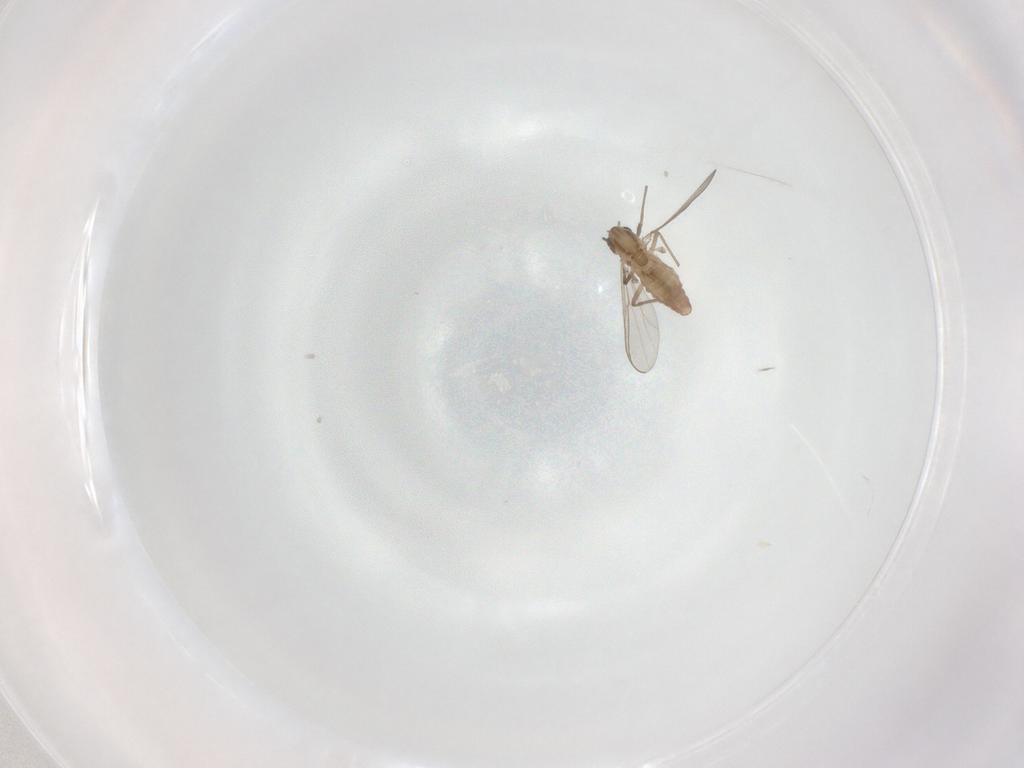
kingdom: Animalia
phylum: Arthropoda
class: Insecta
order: Diptera
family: Chironomidae
